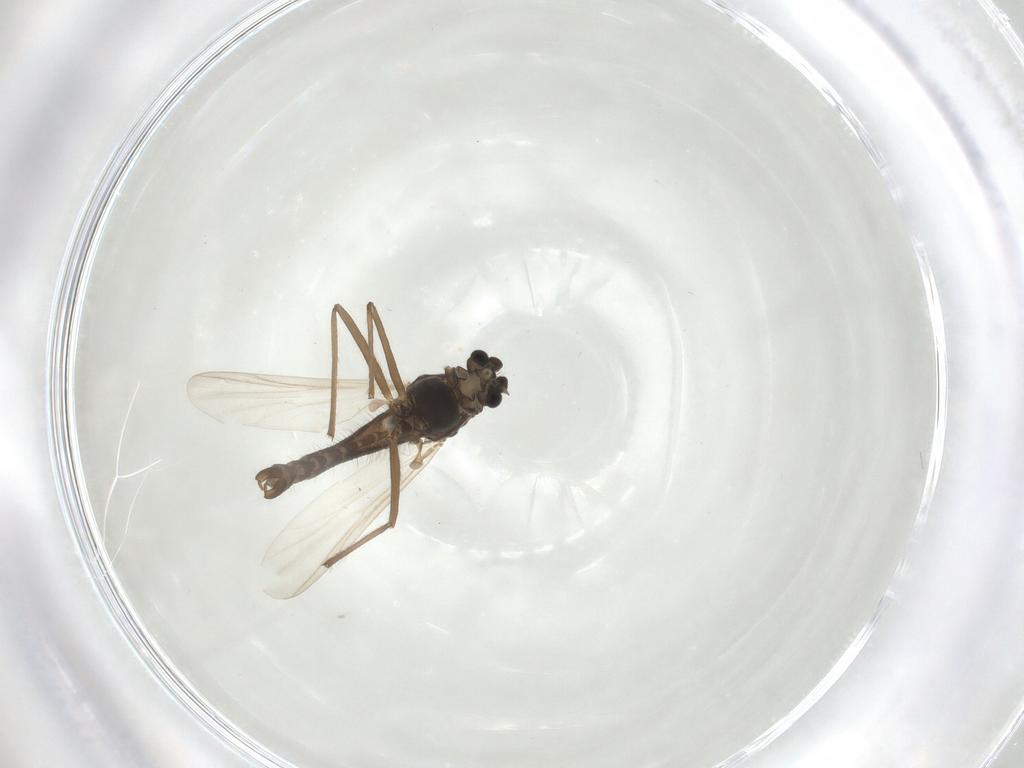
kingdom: Animalia
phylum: Arthropoda
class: Insecta
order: Diptera
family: Chironomidae
